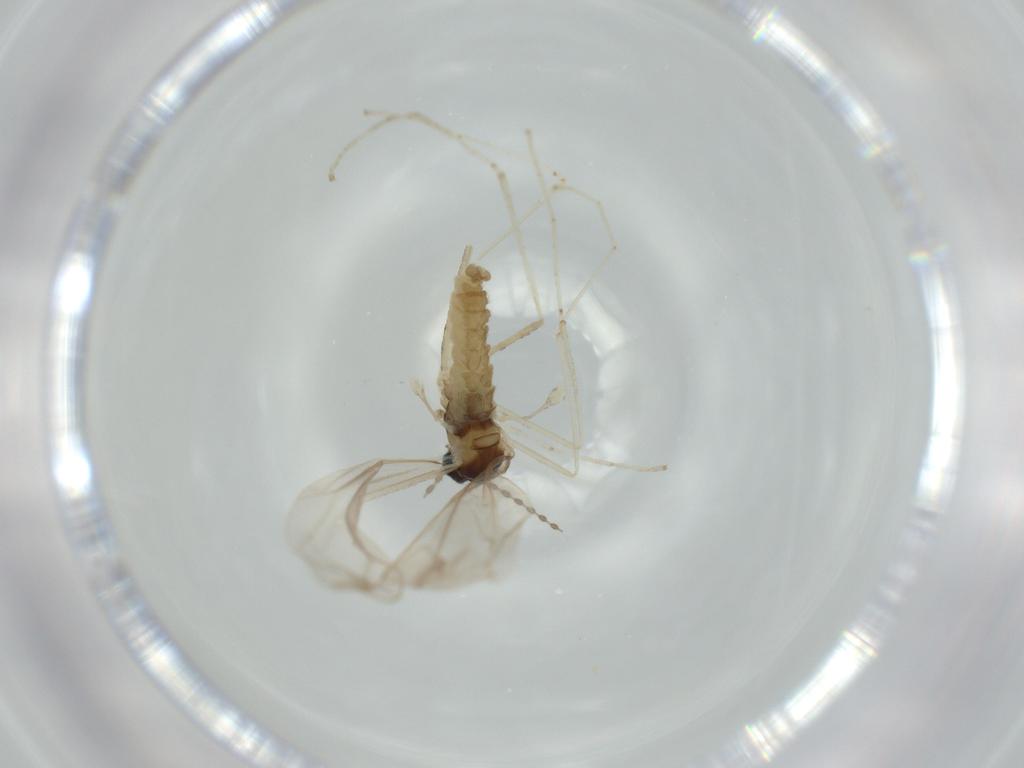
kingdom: Animalia
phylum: Arthropoda
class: Insecta
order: Diptera
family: Cecidomyiidae
